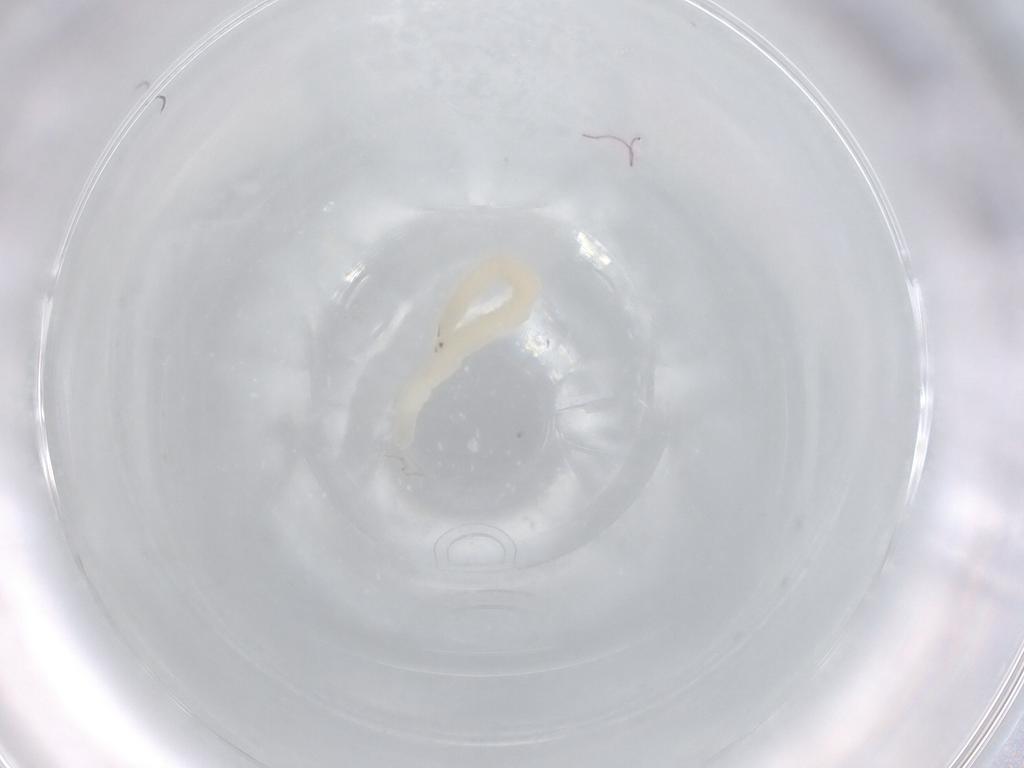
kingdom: Animalia
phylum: Arthropoda
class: Insecta
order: Diptera
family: Cecidomyiidae
